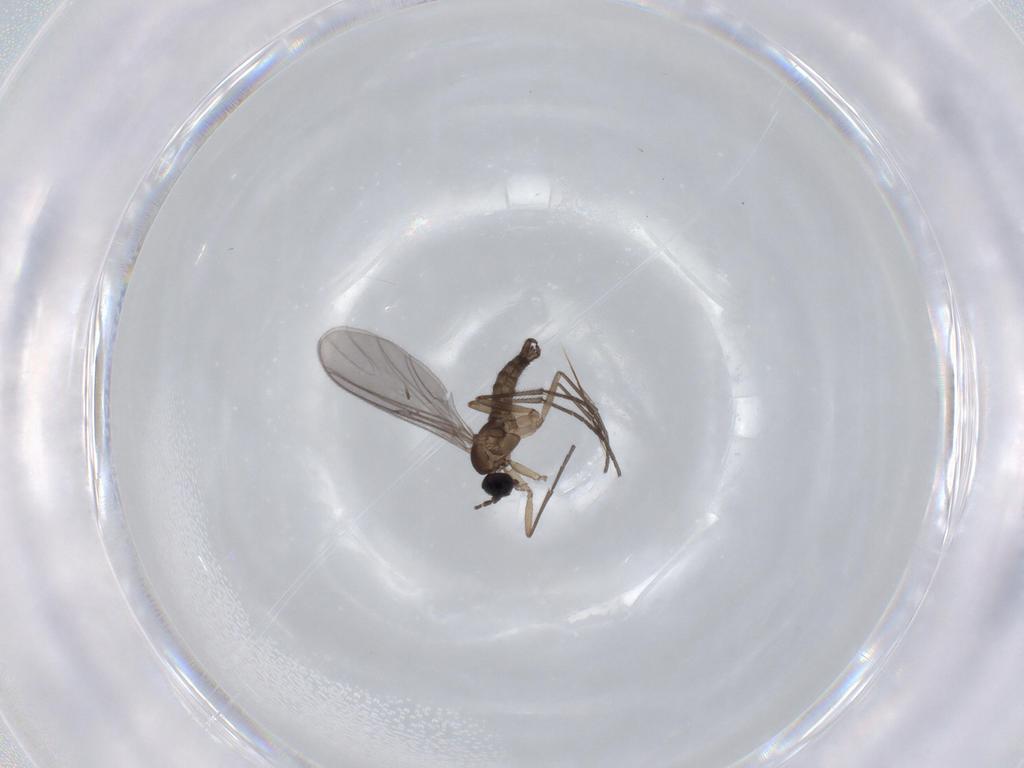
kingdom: Animalia
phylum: Arthropoda
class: Insecta
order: Diptera
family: Sciaridae
